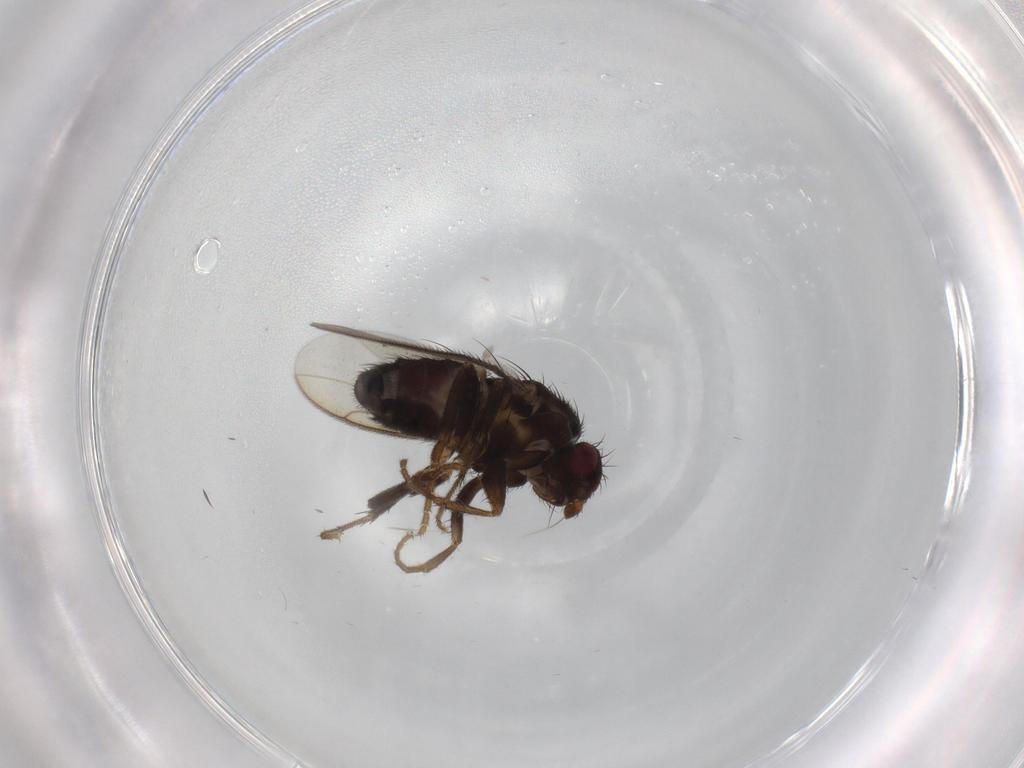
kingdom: Animalia
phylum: Arthropoda
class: Insecta
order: Diptera
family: Sphaeroceridae
